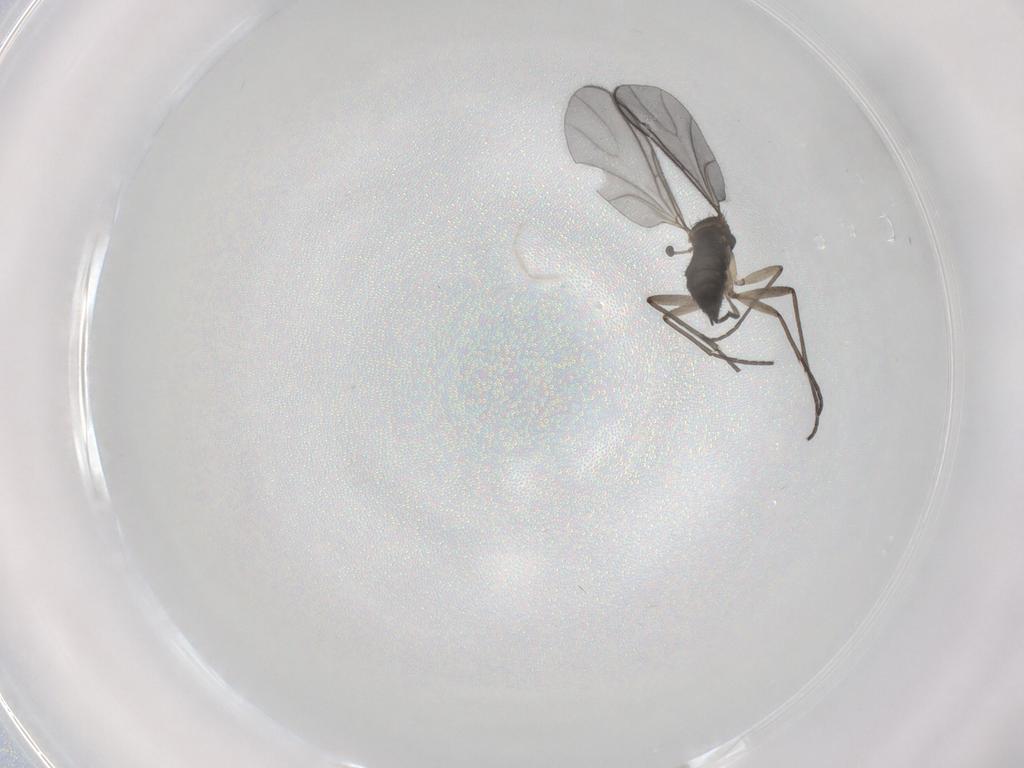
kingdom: Animalia
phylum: Arthropoda
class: Insecta
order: Diptera
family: Sciaridae
